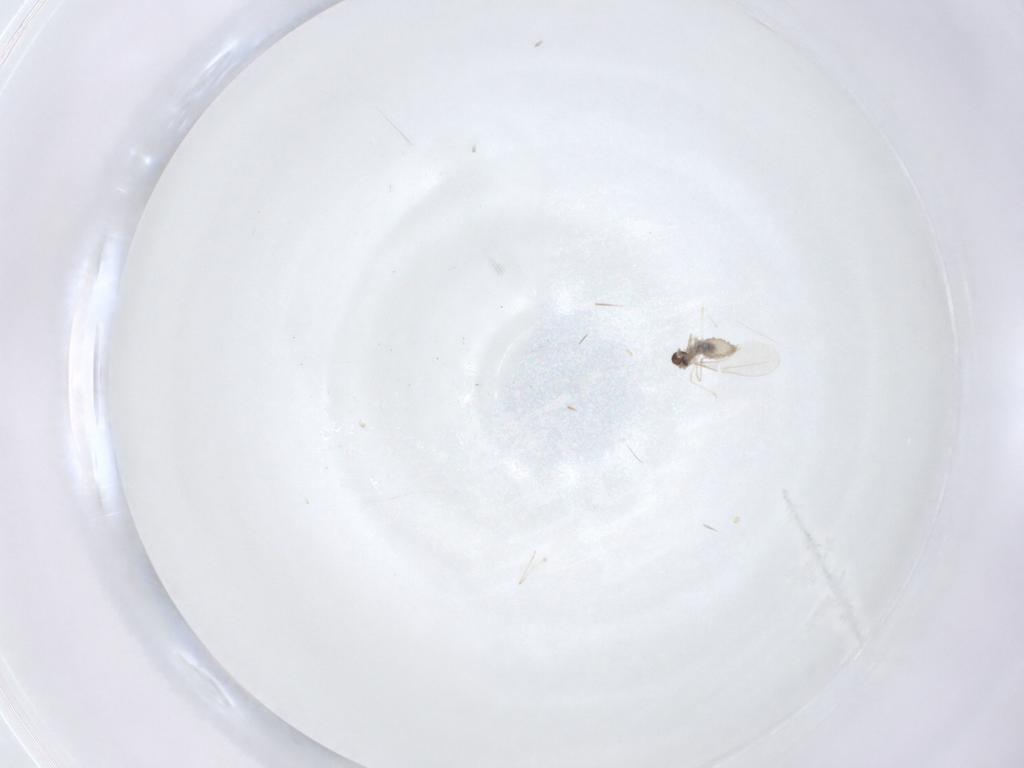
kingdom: Animalia
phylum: Arthropoda
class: Insecta
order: Diptera
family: Cecidomyiidae
